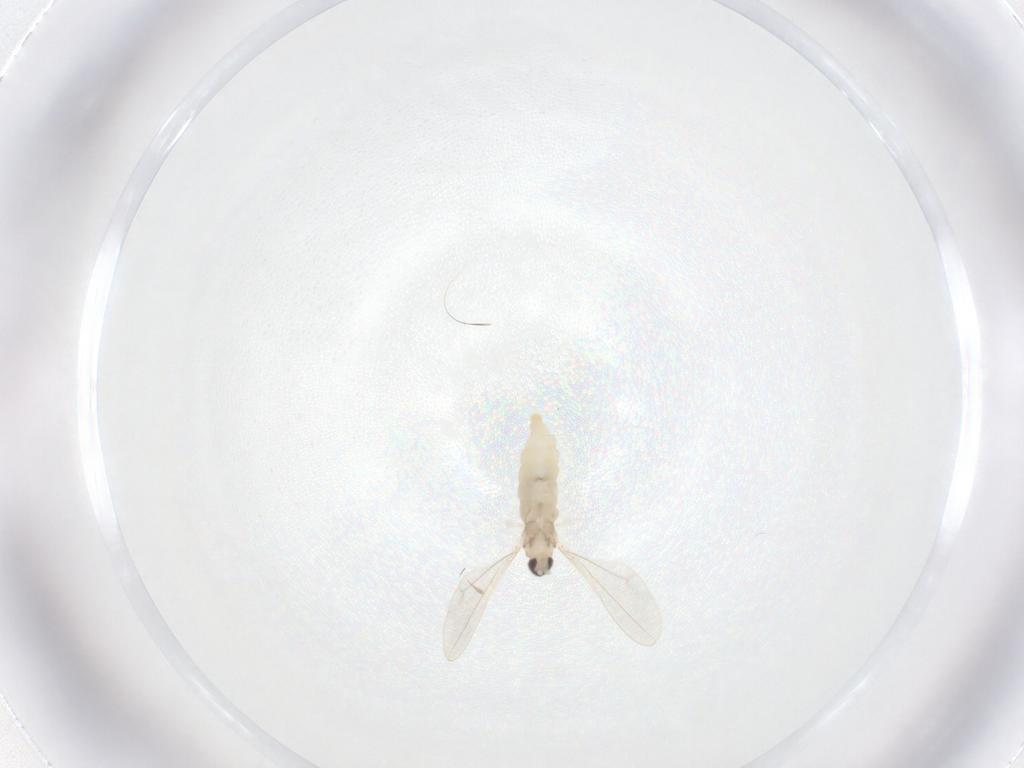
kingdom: Animalia
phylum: Arthropoda
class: Insecta
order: Diptera
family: Cecidomyiidae
